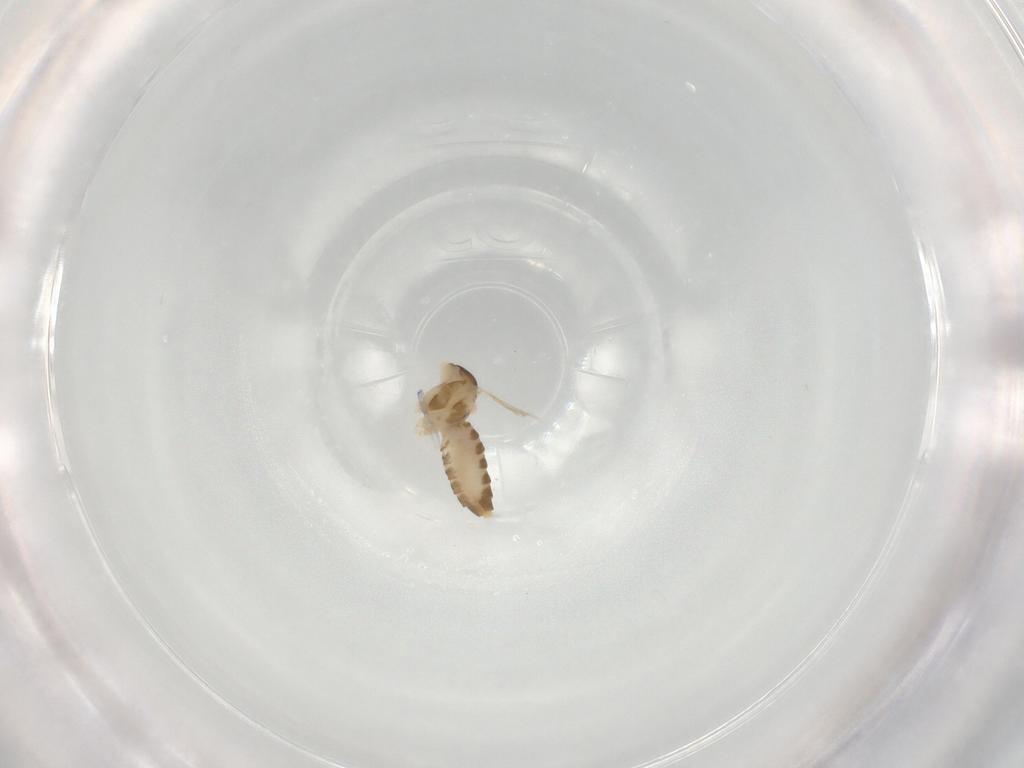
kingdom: Animalia
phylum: Arthropoda
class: Insecta
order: Diptera
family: Cecidomyiidae
